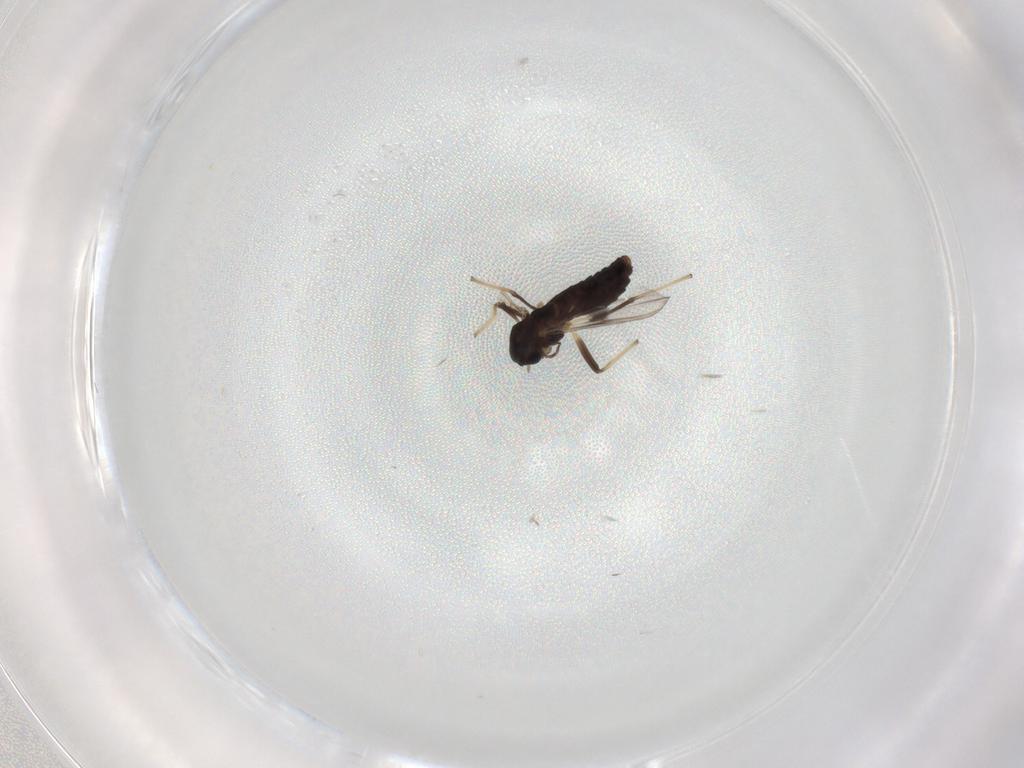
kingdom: Animalia
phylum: Arthropoda
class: Insecta
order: Diptera
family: Chironomidae
